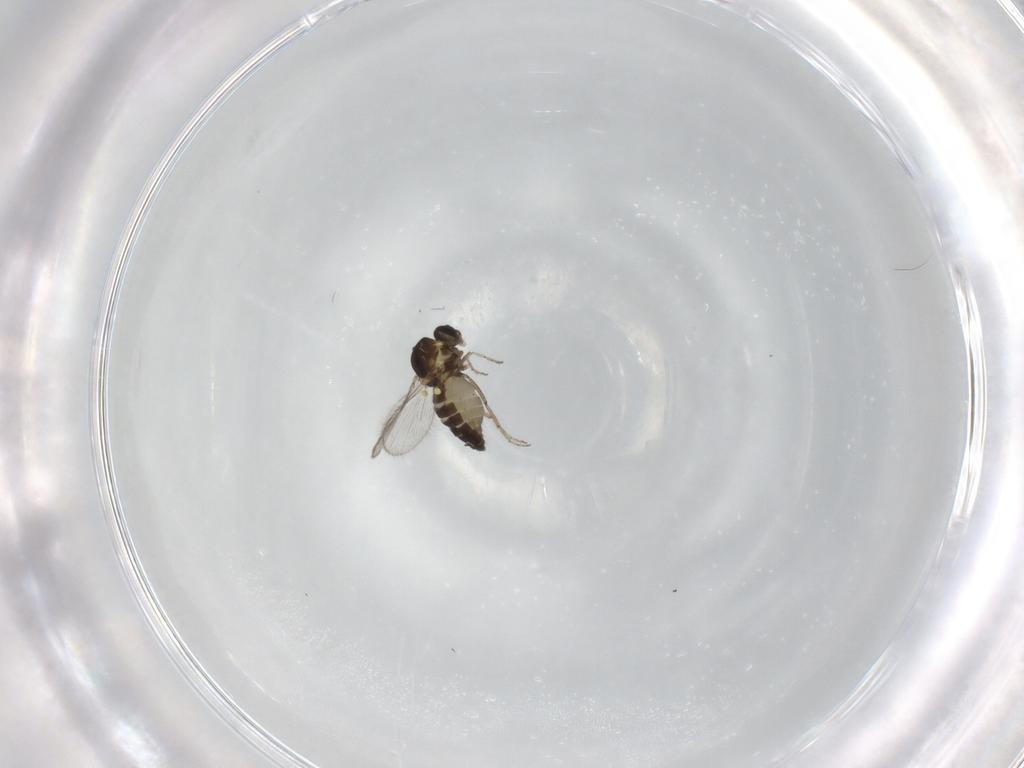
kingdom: Animalia
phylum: Arthropoda
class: Insecta
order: Diptera
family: Ceratopogonidae
